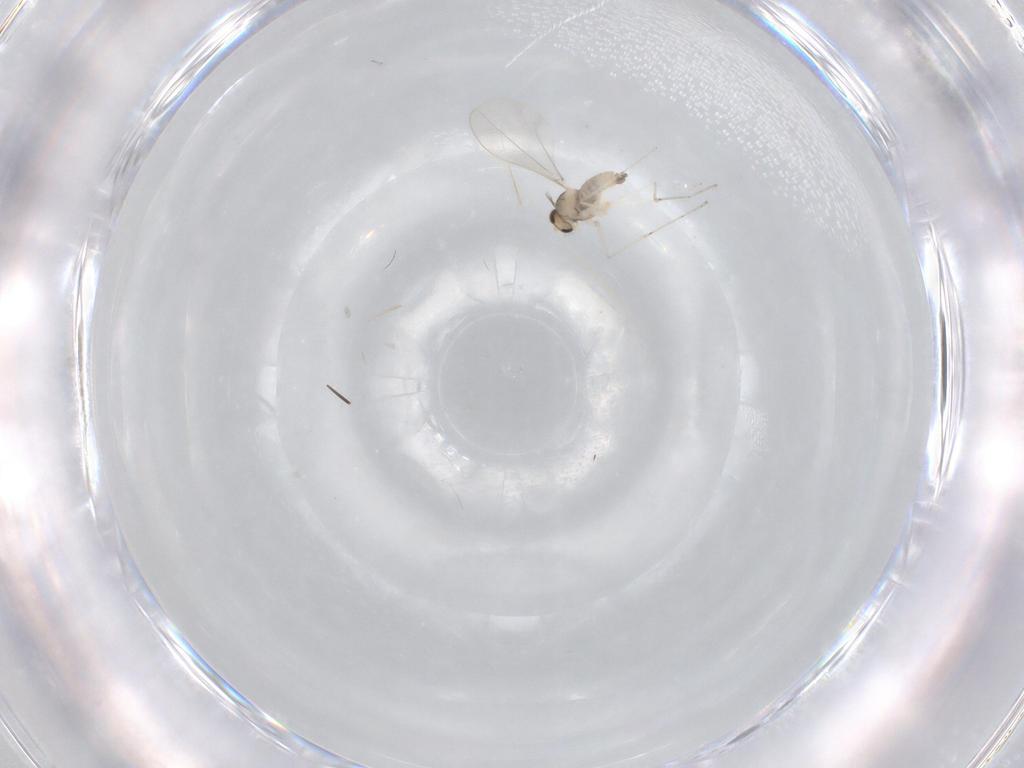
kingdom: Animalia
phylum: Arthropoda
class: Insecta
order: Diptera
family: Cecidomyiidae
